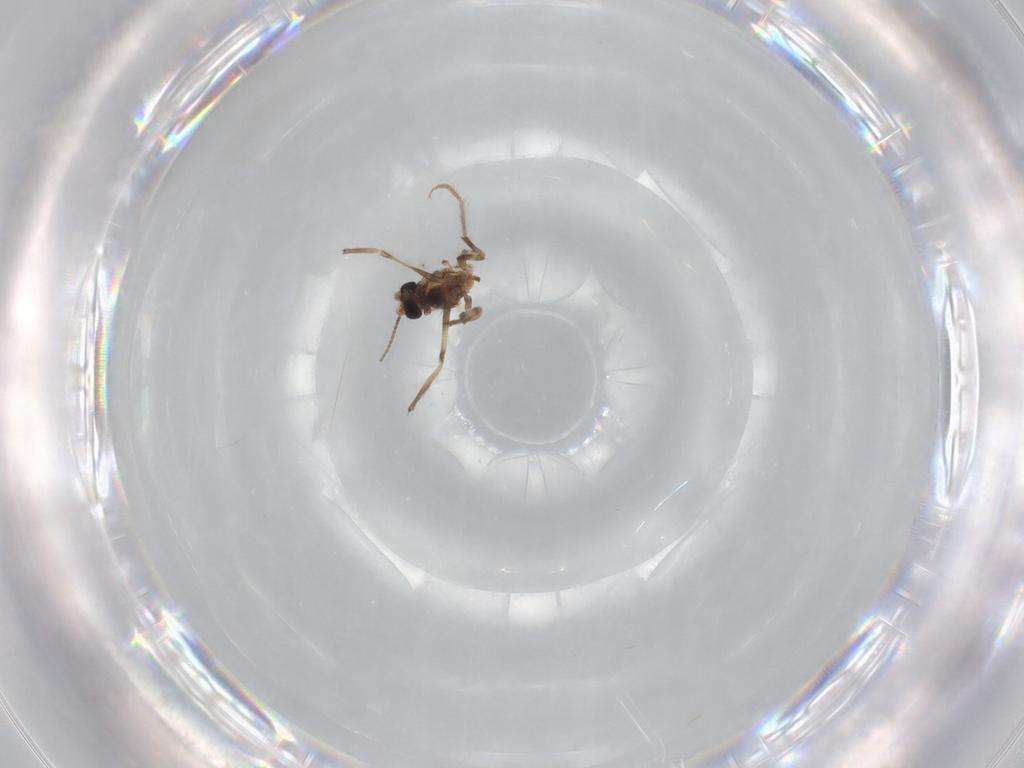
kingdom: Animalia
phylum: Arthropoda
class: Insecta
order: Diptera
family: Chironomidae
